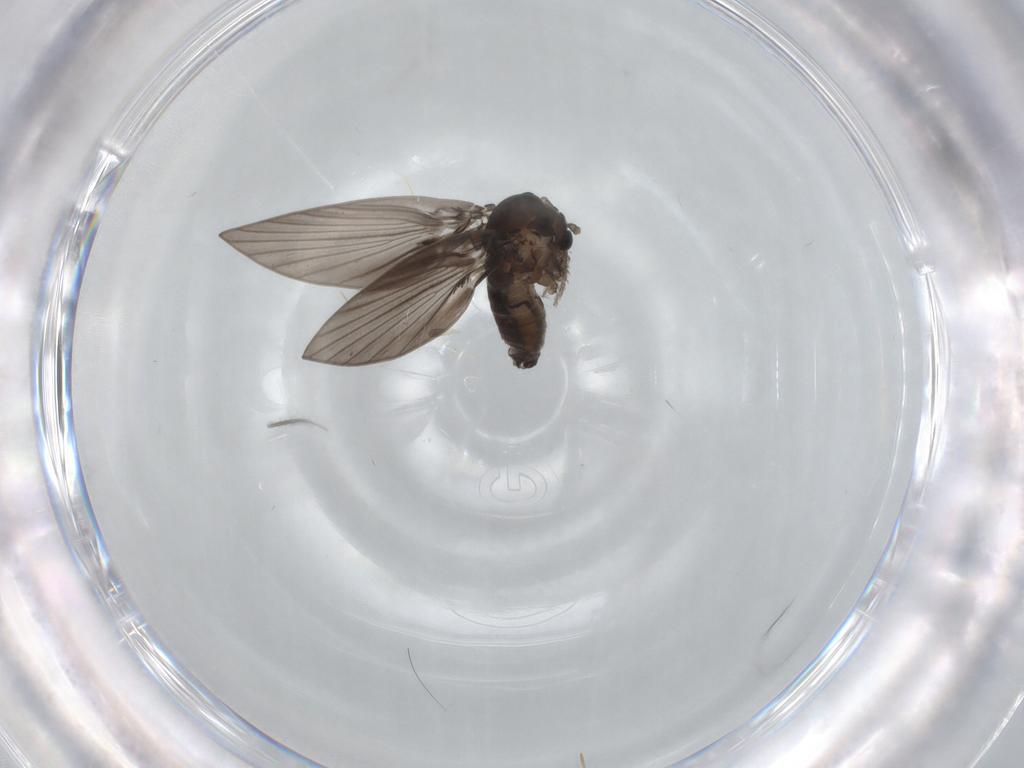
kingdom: Animalia
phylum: Arthropoda
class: Insecta
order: Diptera
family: Psychodidae
